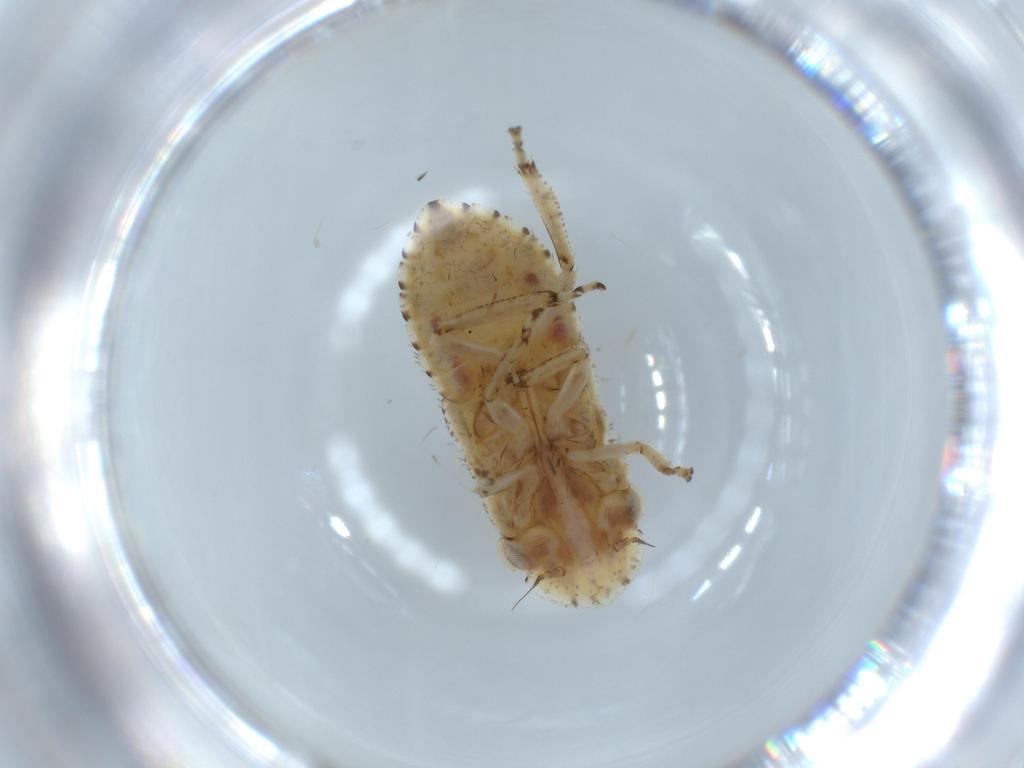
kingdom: Animalia
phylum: Arthropoda
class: Insecta
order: Hemiptera
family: Cicadellidae
